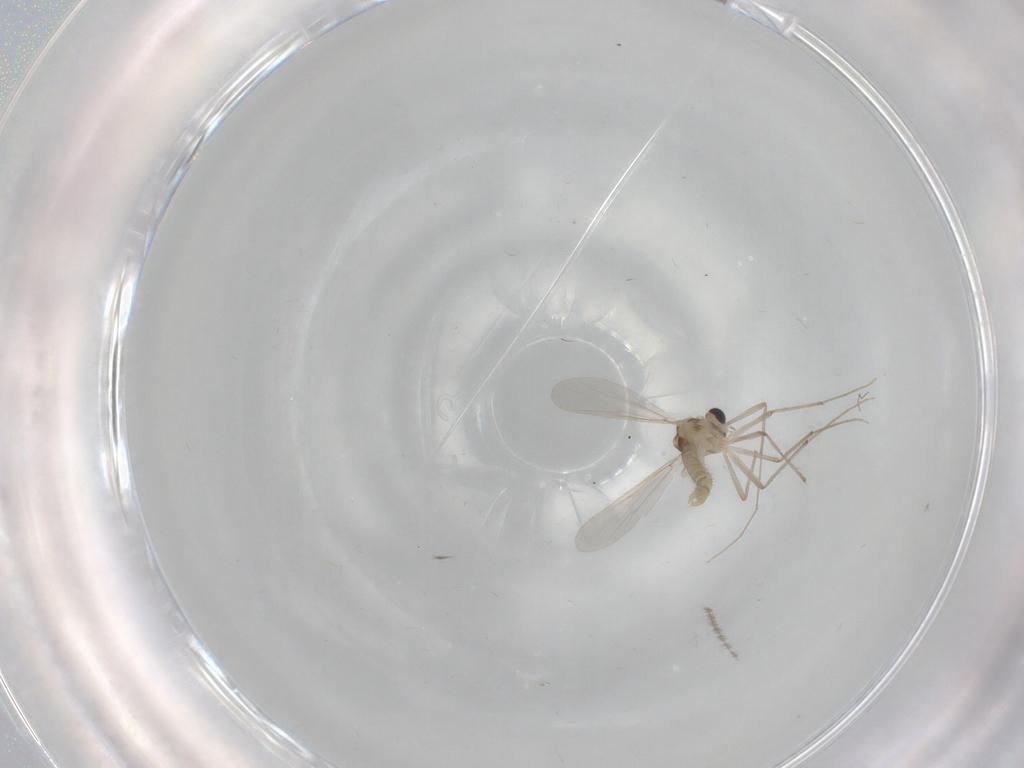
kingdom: Animalia
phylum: Arthropoda
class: Insecta
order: Diptera
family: Chironomidae
